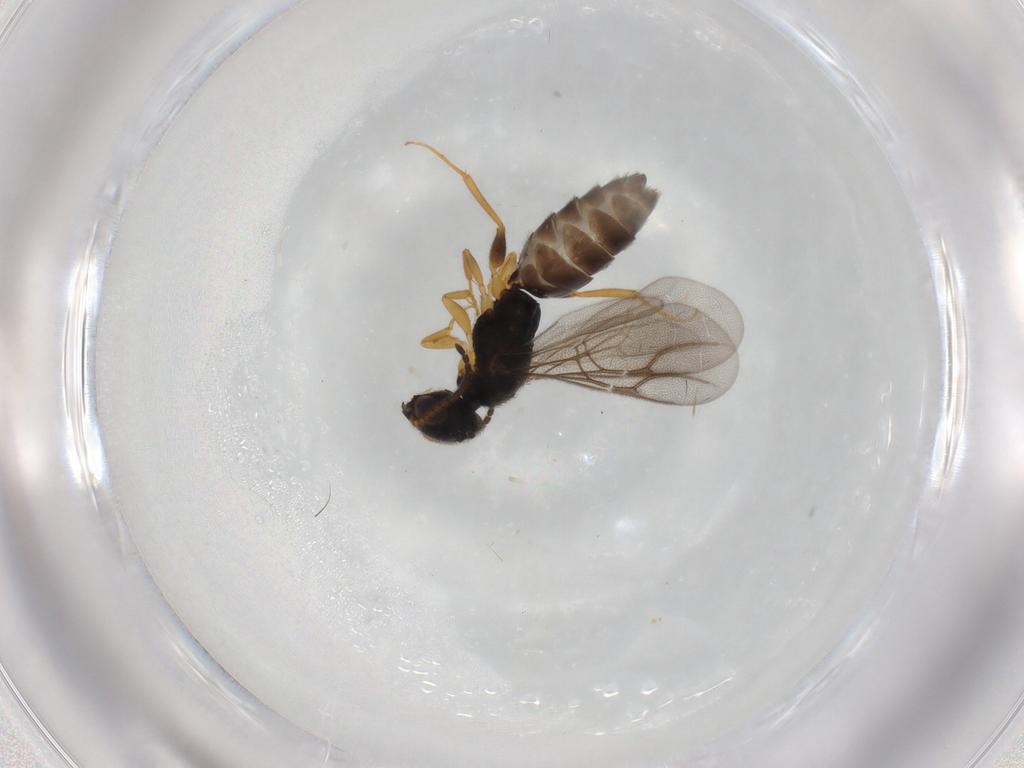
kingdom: Animalia
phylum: Arthropoda
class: Insecta
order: Hymenoptera
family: Bethylidae
